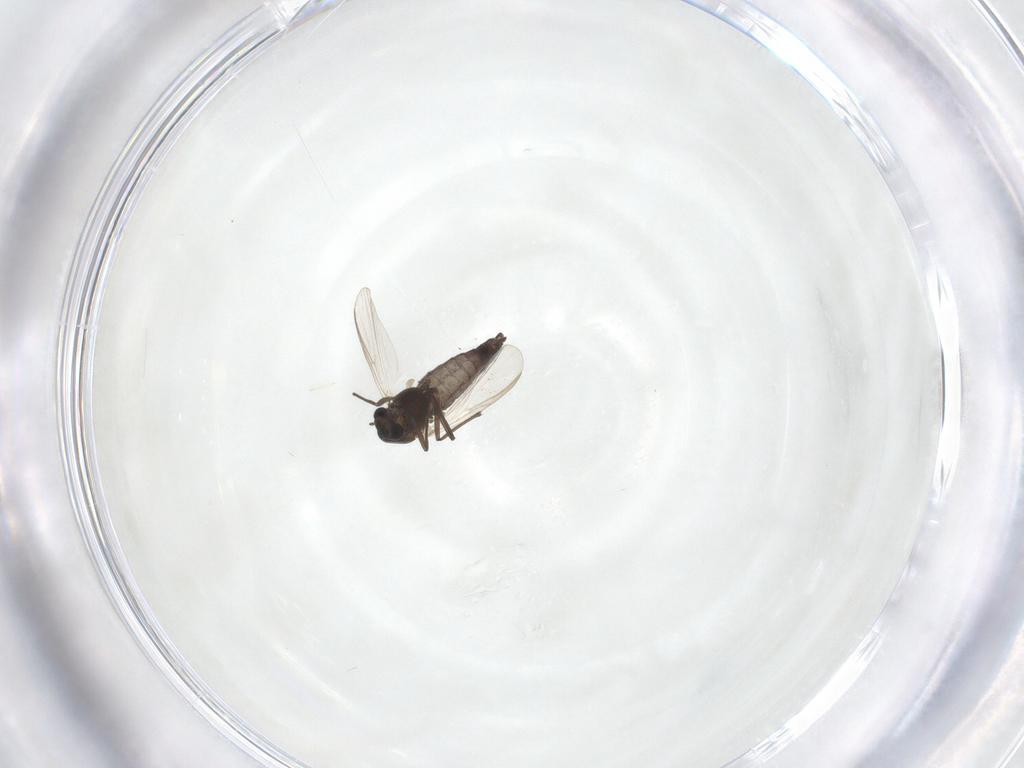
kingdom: Animalia
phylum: Arthropoda
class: Insecta
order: Diptera
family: Chironomidae
